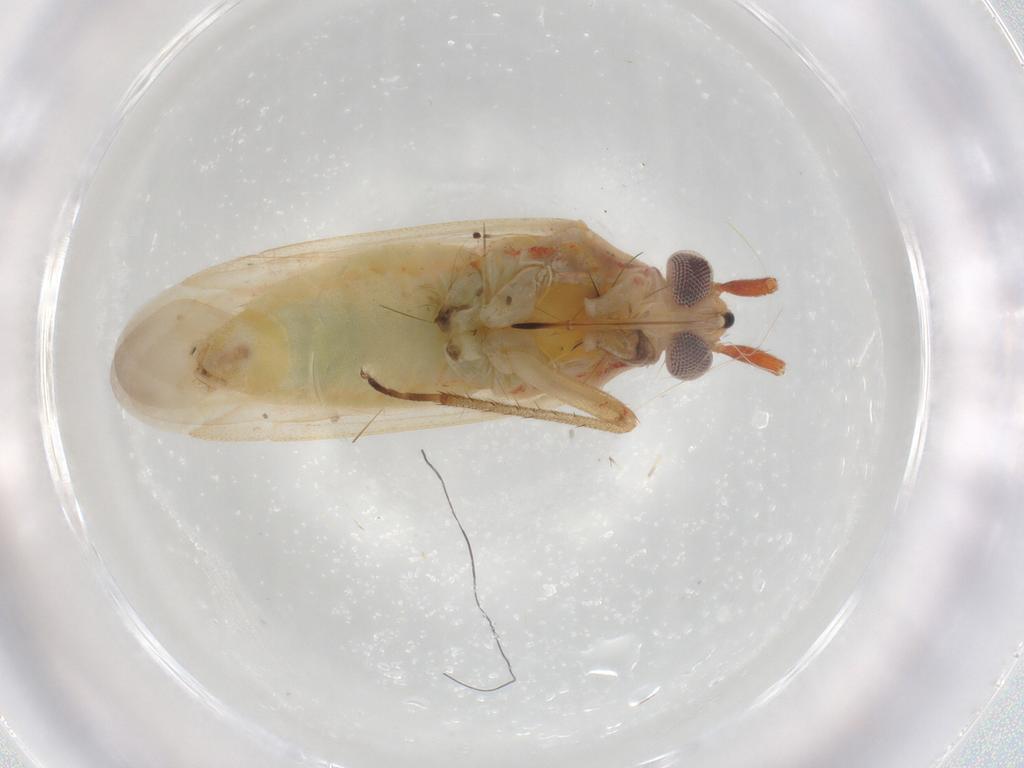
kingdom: Animalia
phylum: Arthropoda
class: Insecta
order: Hemiptera
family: Miridae
